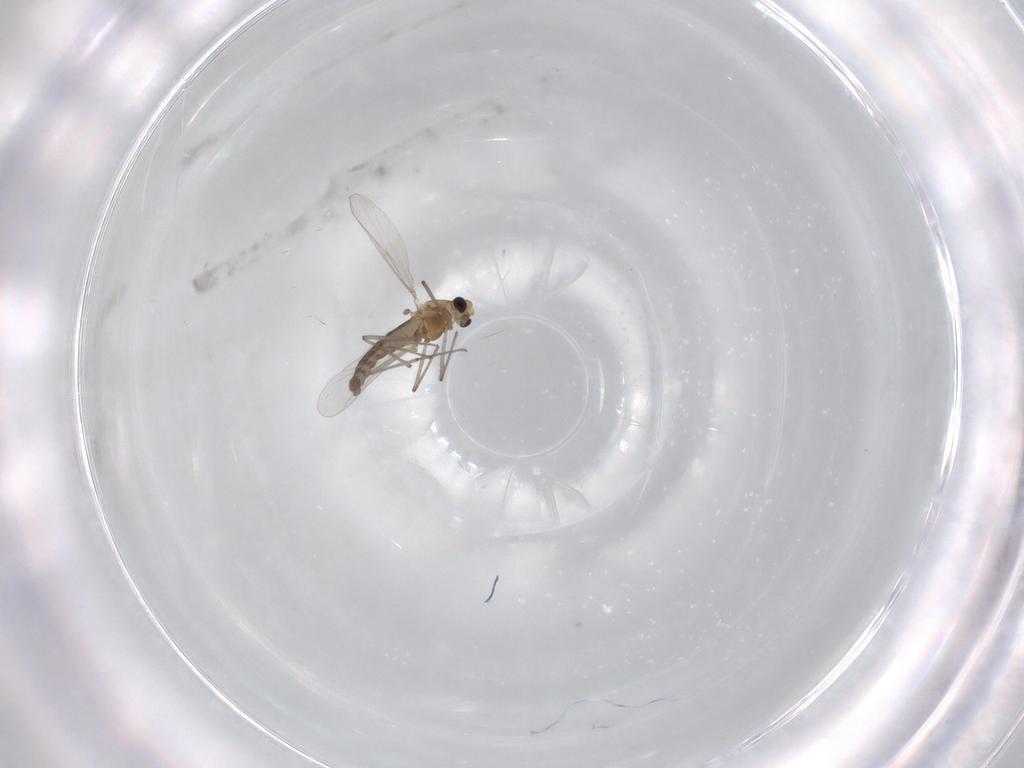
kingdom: Animalia
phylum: Arthropoda
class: Insecta
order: Diptera
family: Chironomidae
